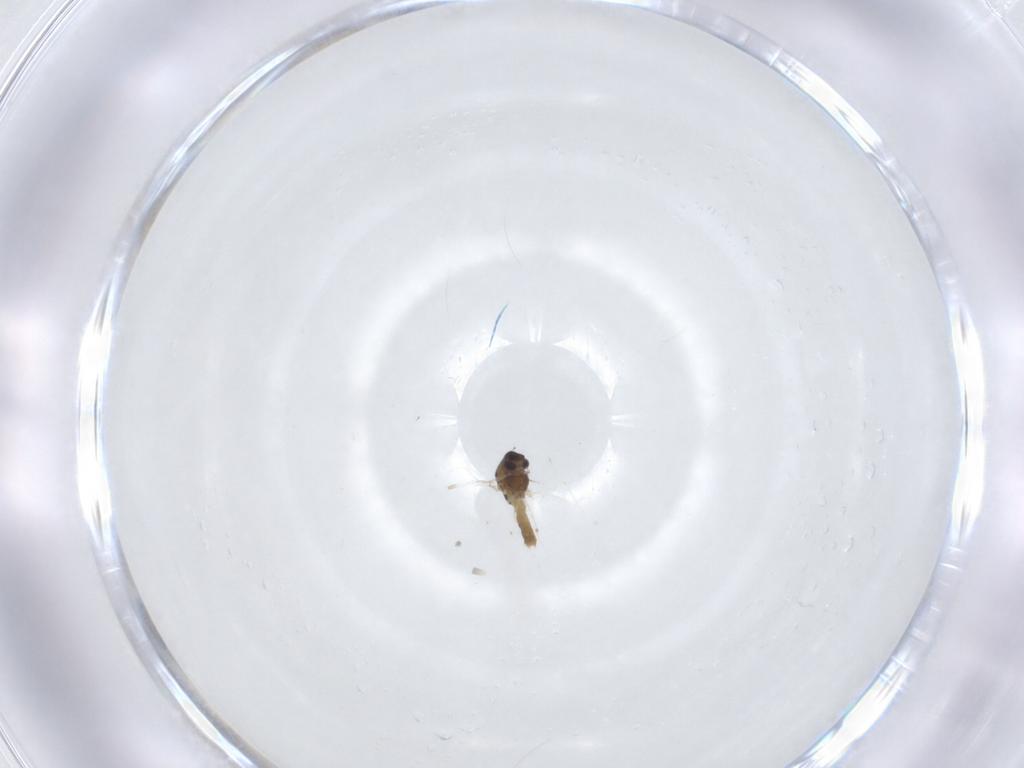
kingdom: Animalia
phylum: Arthropoda
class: Insecta
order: Diptera
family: Chironomidae
